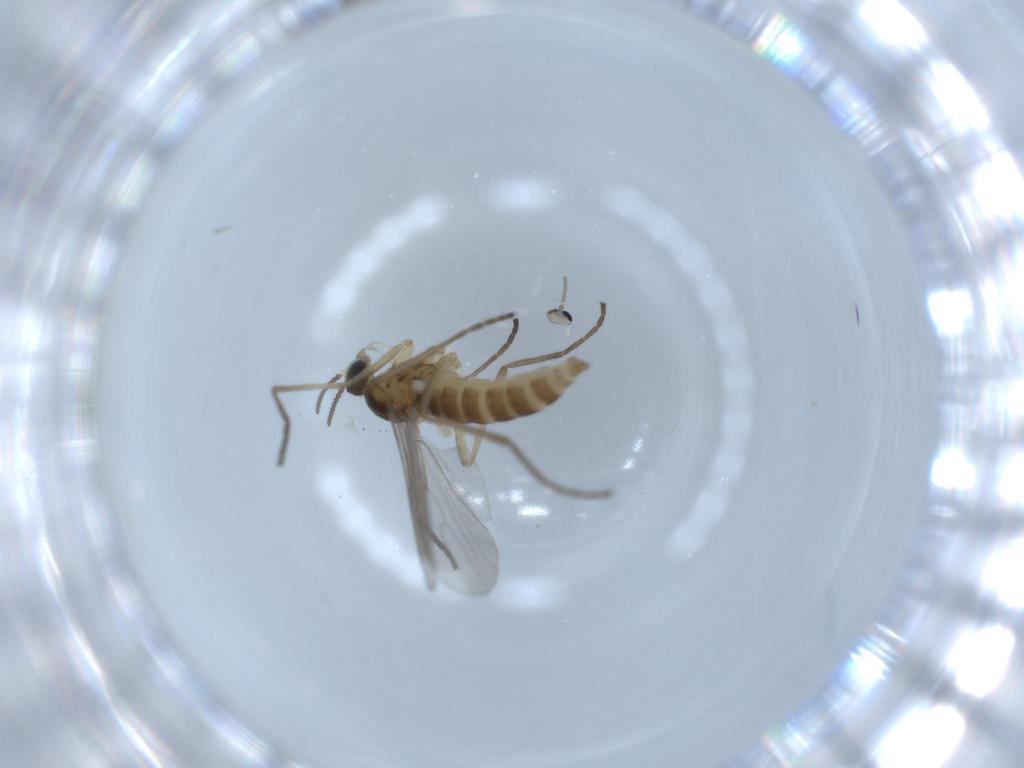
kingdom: Animalia
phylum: Arthropoda
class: Insecta
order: Diptera
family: Cecidomyiidae
